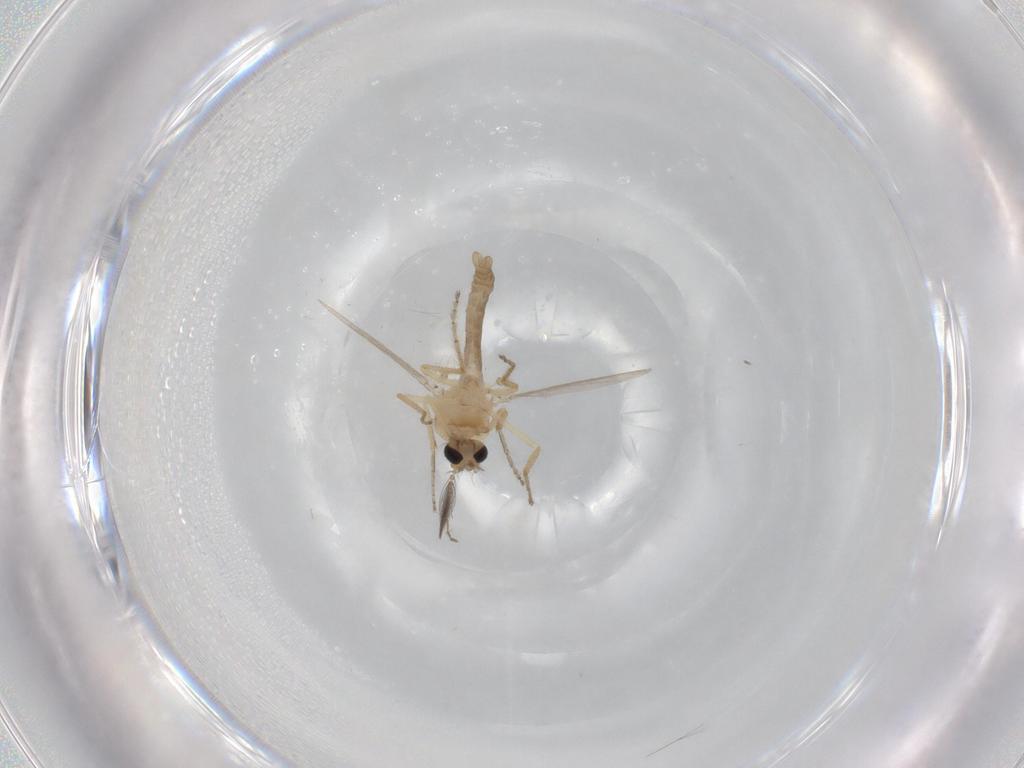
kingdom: Animalia
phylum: Arthropoda
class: Insecta
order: Diptera
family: Ceratopogonidae
